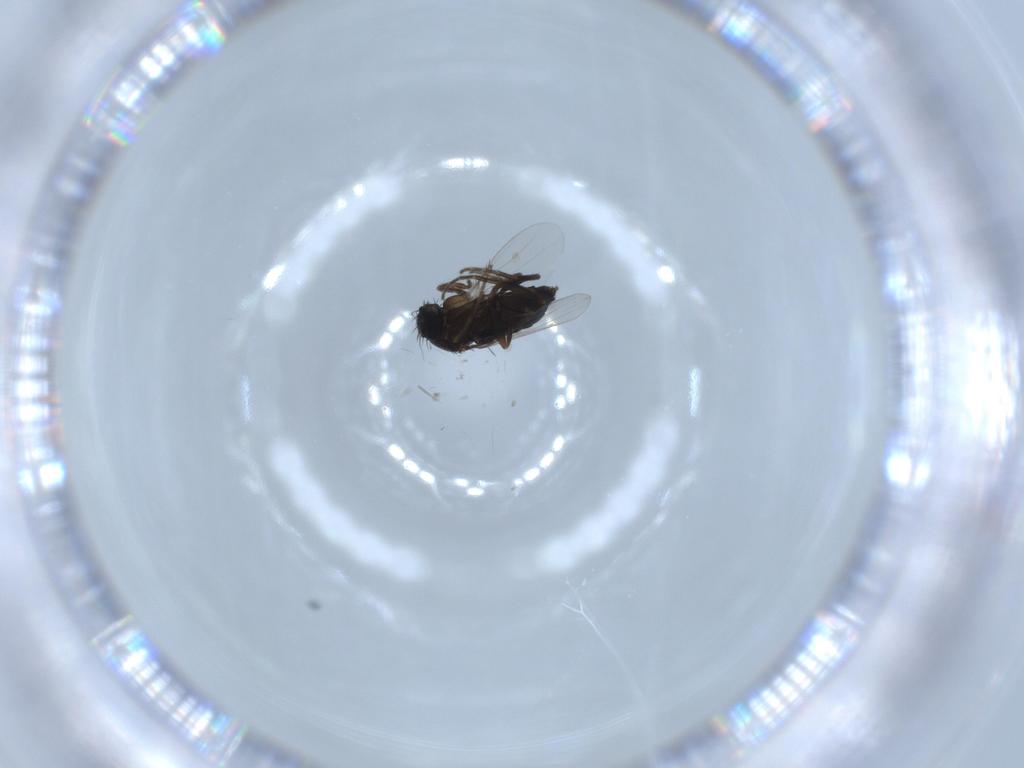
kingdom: Animalia
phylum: Arthropoda
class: Insecta
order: Diptera
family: Phoridae
